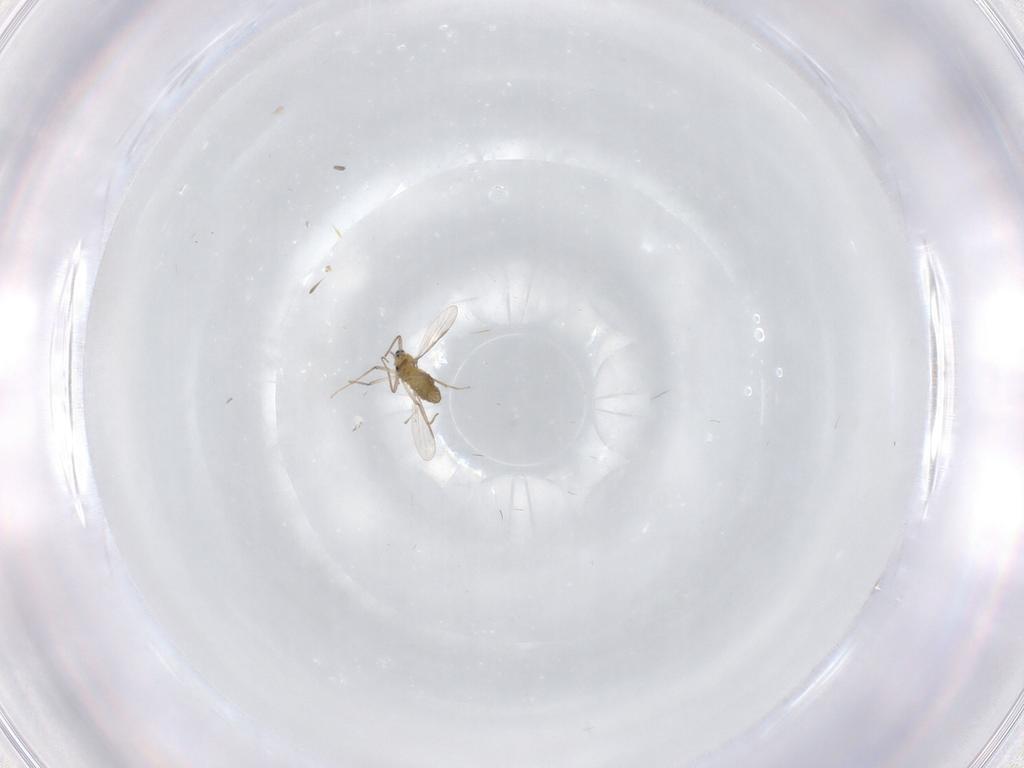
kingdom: Animalia
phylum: Arthropoda
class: Insecta
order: Diptera
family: Chironomidae
